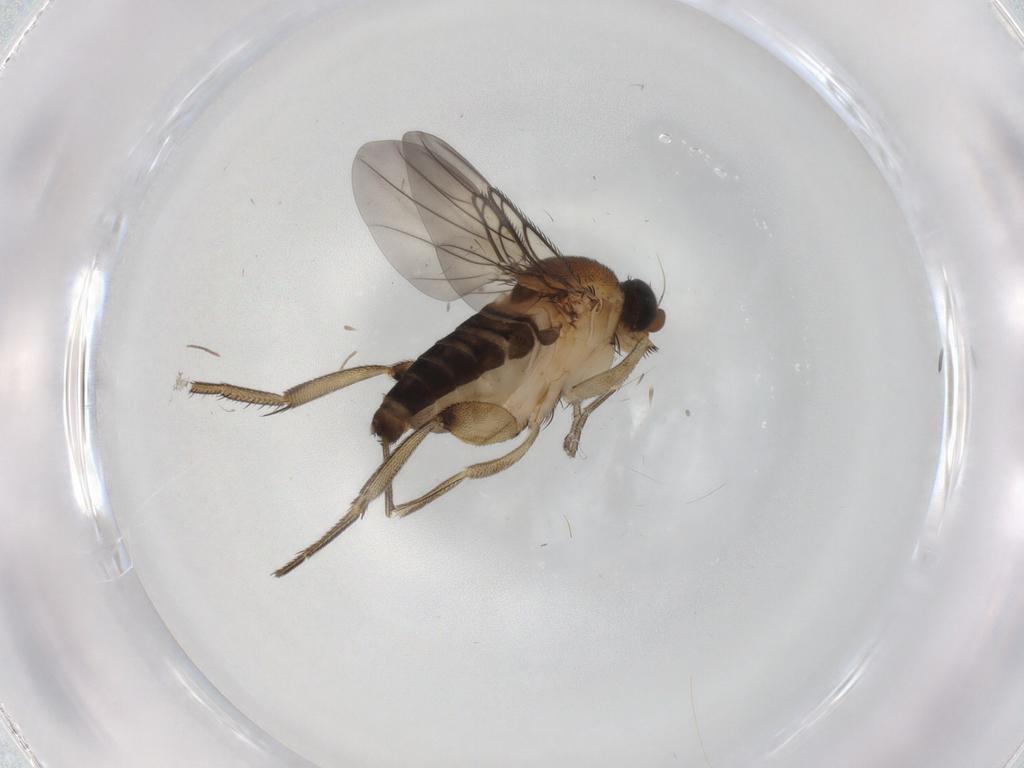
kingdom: Animalia
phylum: Arthropoda
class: Insecta
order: Diptera
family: Phoridae
